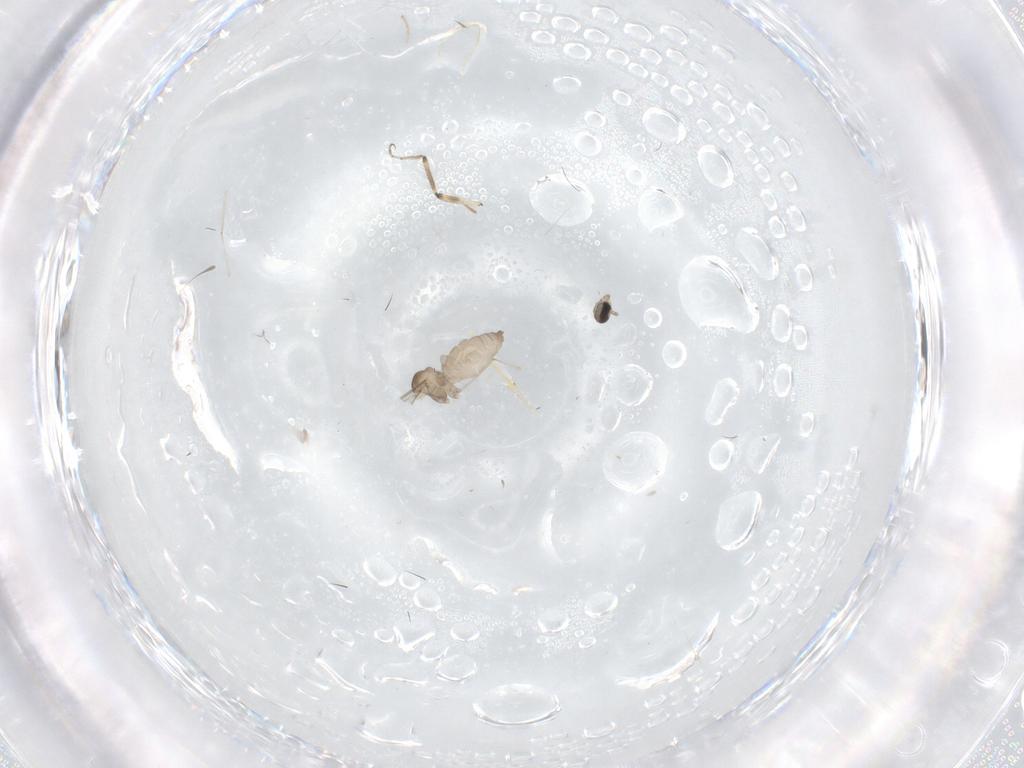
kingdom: Animalia
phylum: Arthropoda
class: Insecta
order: Diptera
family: Ceratopogonidae
